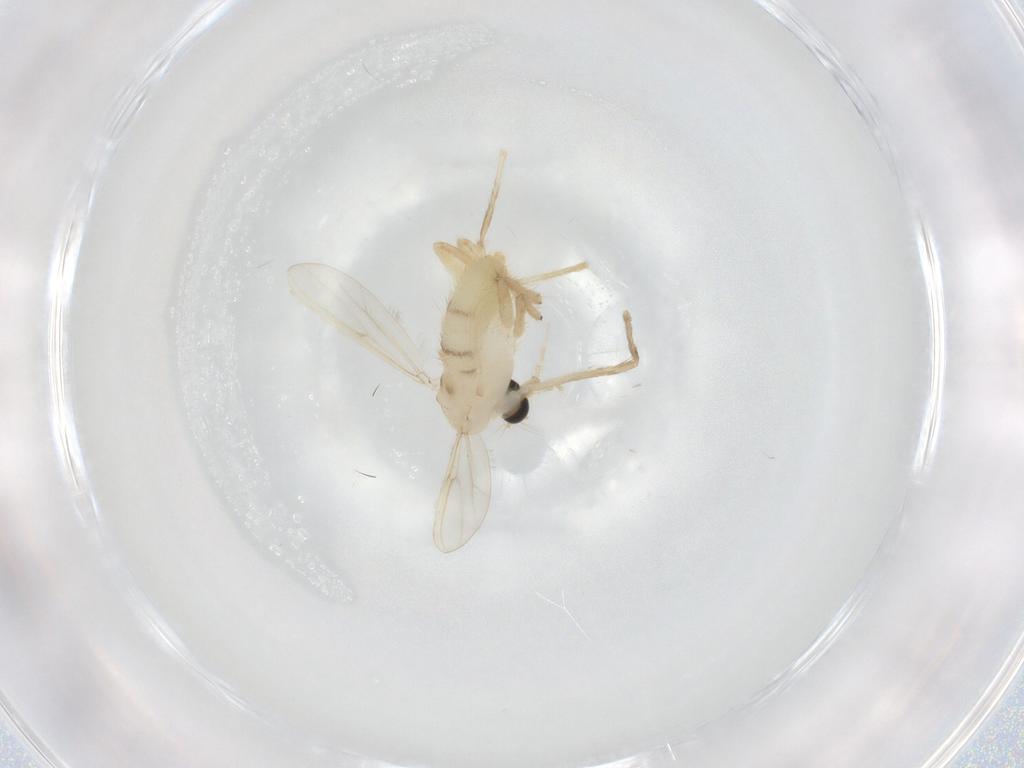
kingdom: Animalia
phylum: Arthropoda
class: Insecta
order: Diptera
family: Chironomidae
